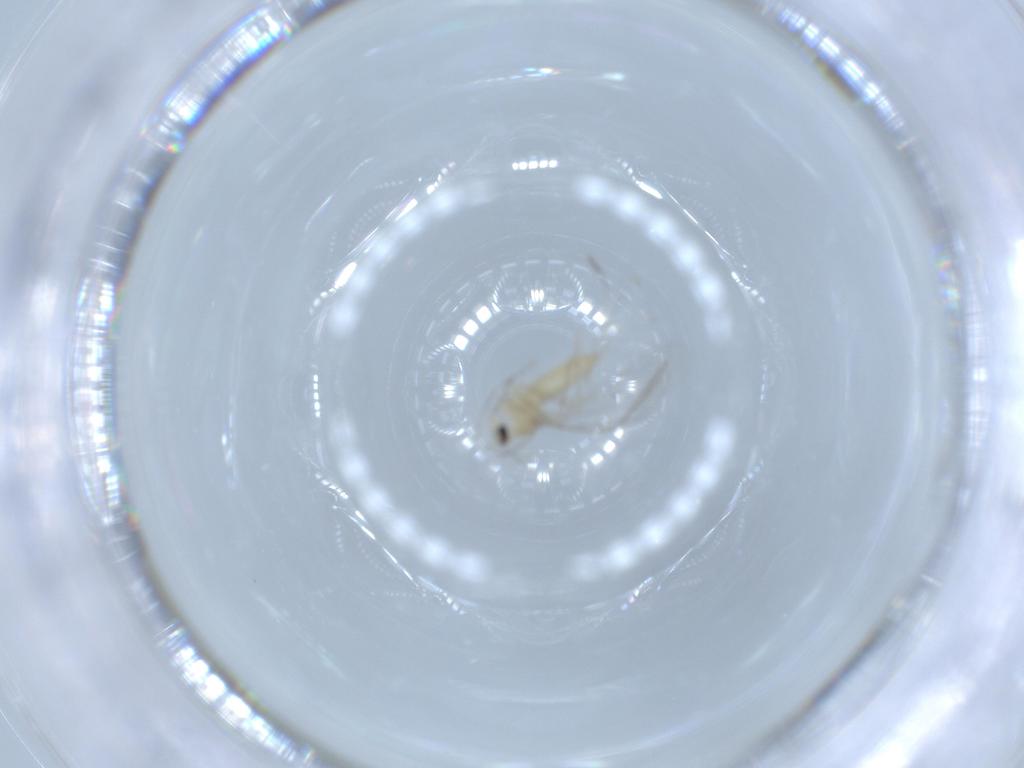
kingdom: Animalia
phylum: Arthropoda
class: Insecta
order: Diptera
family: Cecidomyiidae
